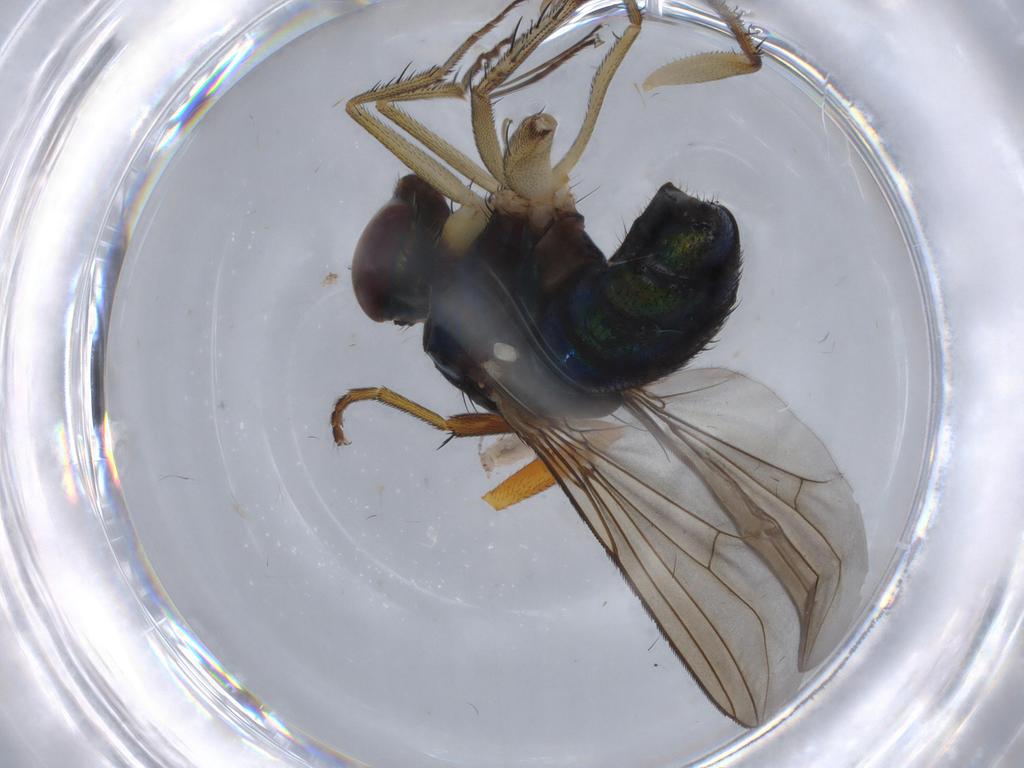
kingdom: Animalia
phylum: Arthropoda
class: Insecta
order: Diptera
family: Dolichopodidae
